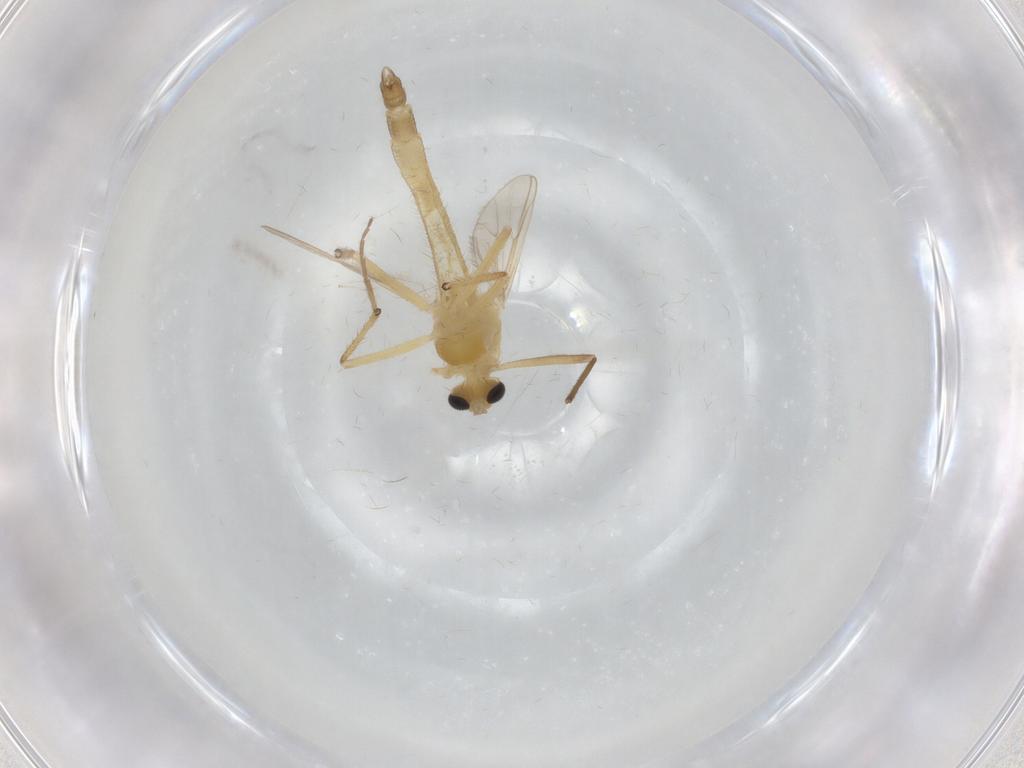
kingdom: Animalia
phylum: Arthropoda
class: Insecta
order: Diptera
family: Chironomidae
